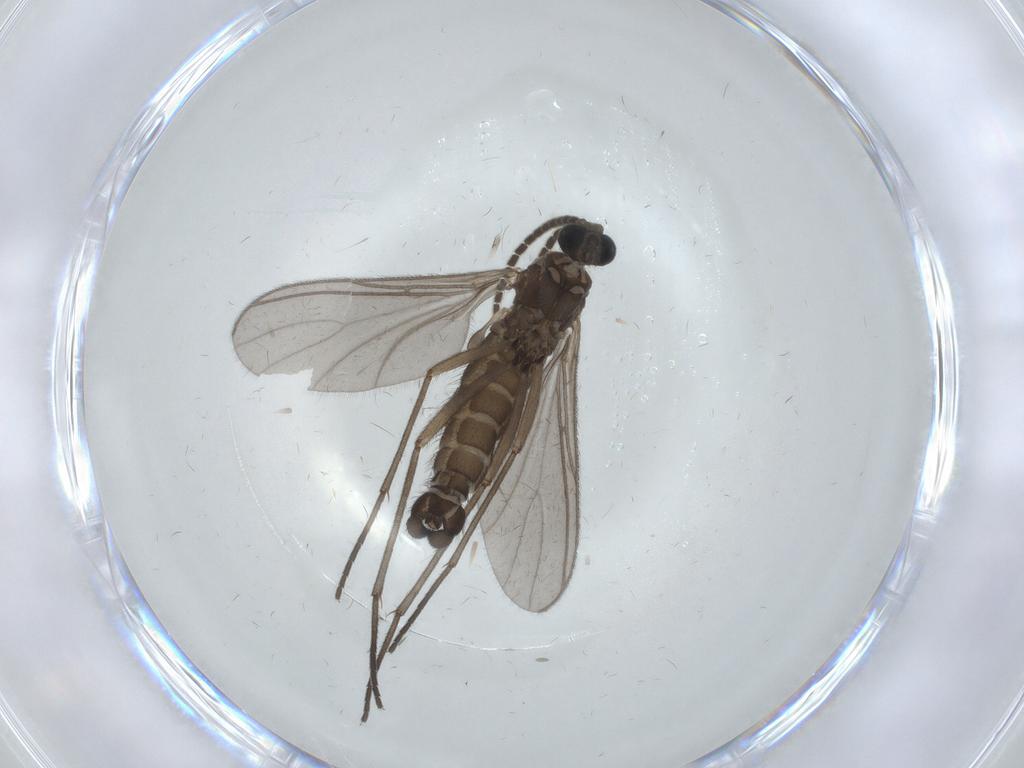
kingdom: Animalia
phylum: Arthropoda
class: Insecta
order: Diptera
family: Sciaridae
